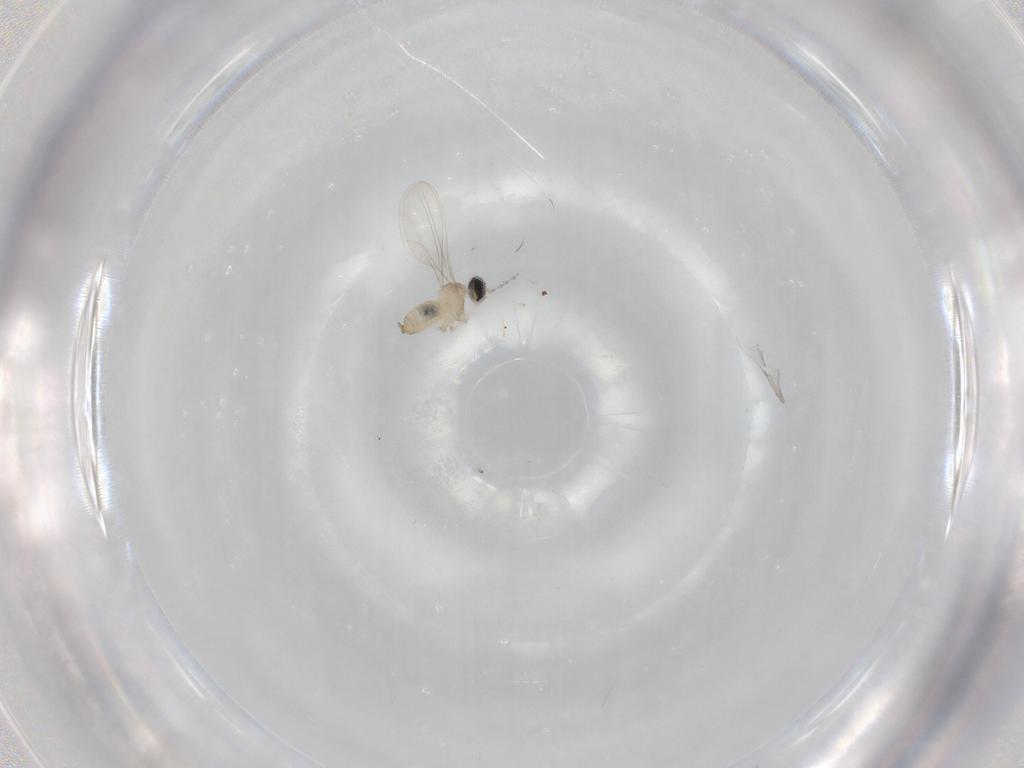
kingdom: Animalia
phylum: Arthropoda
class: Insecta
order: Diptera
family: Cecidomyiidae
